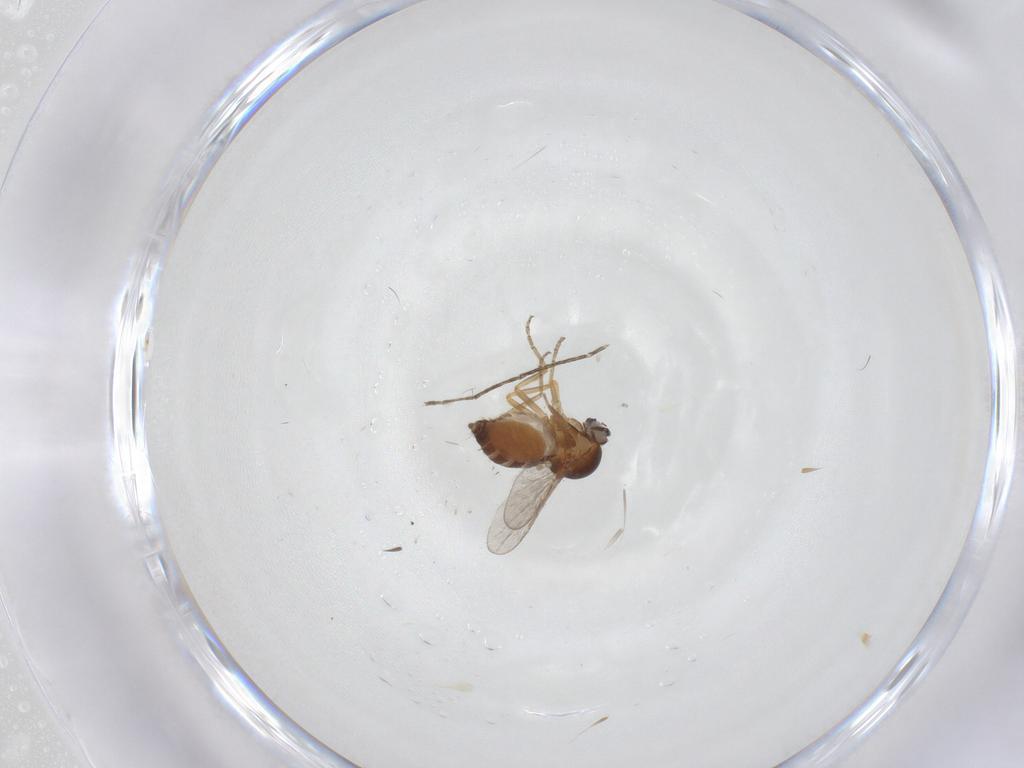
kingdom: Animalia
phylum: Arthropoda
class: Insecta
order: Diptera
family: Ceratopogonidae
